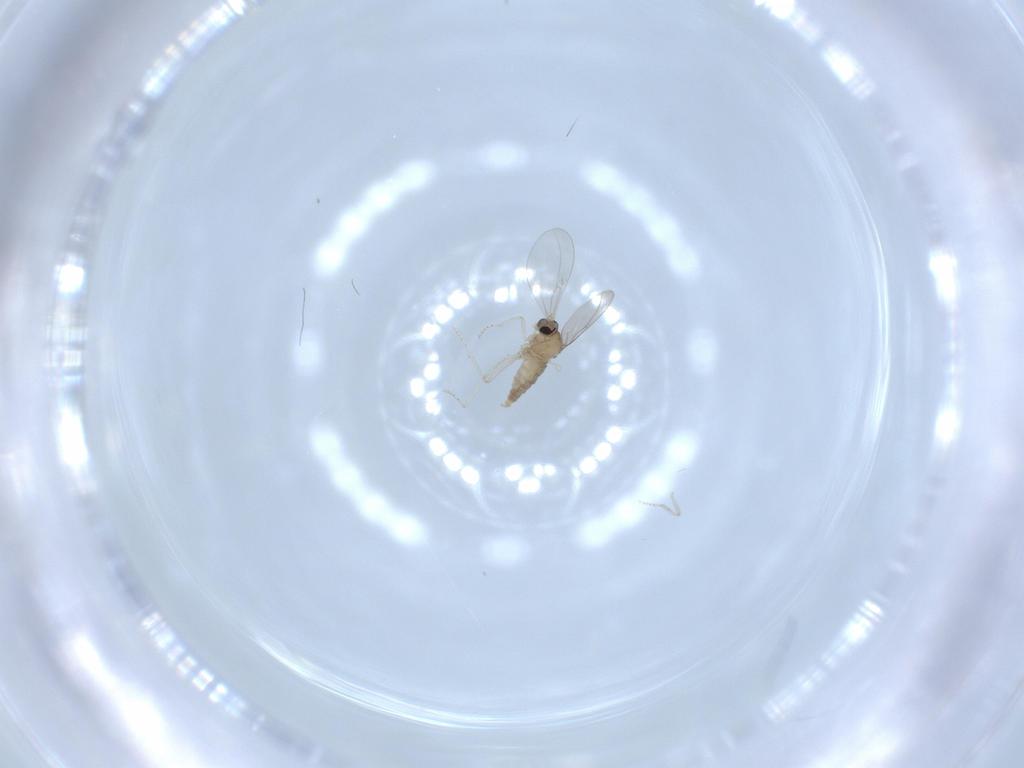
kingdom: Animalia
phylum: Arthropoda
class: Insecta
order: Diptera
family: Cecidomyiidae
